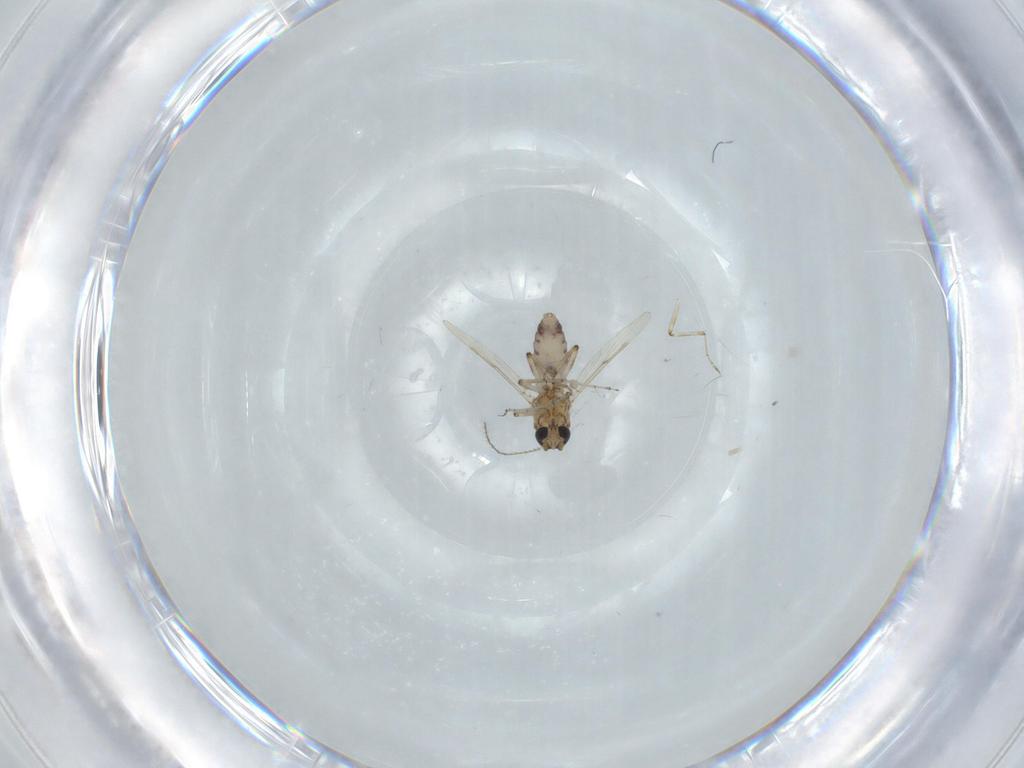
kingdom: Animalia
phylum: Arthropoda
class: Insecta
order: Diptera
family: Ceratopogonidae
